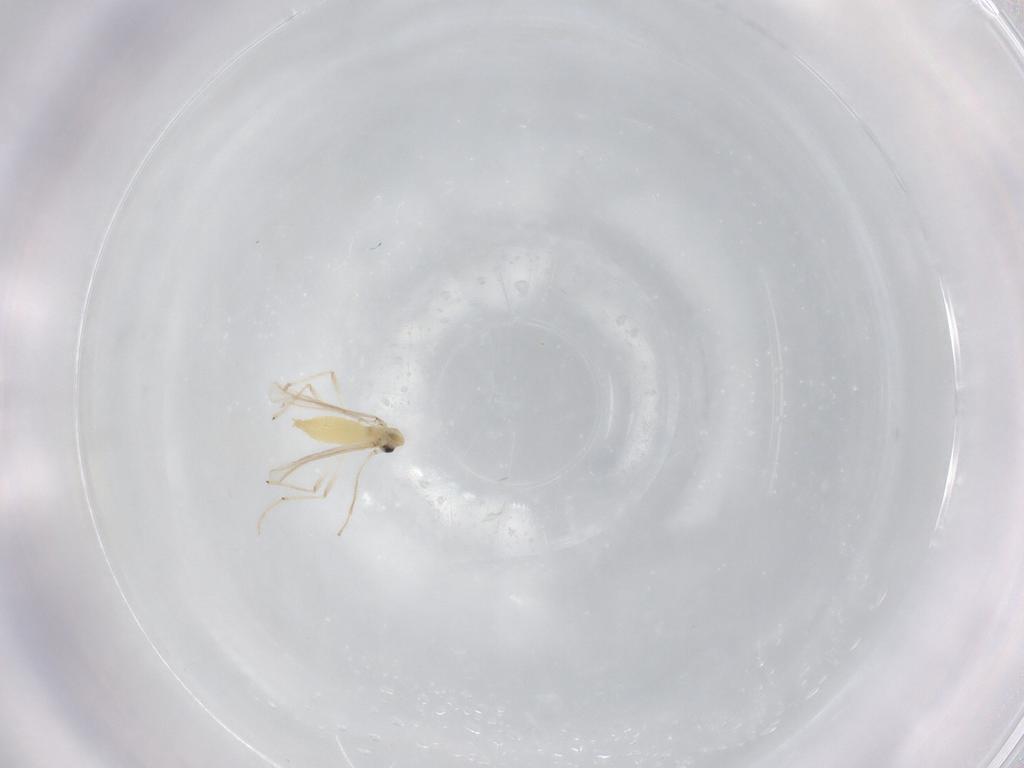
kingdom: Animalia
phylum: Arthropoda
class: Insecta
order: Diptera
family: Chironomidae
